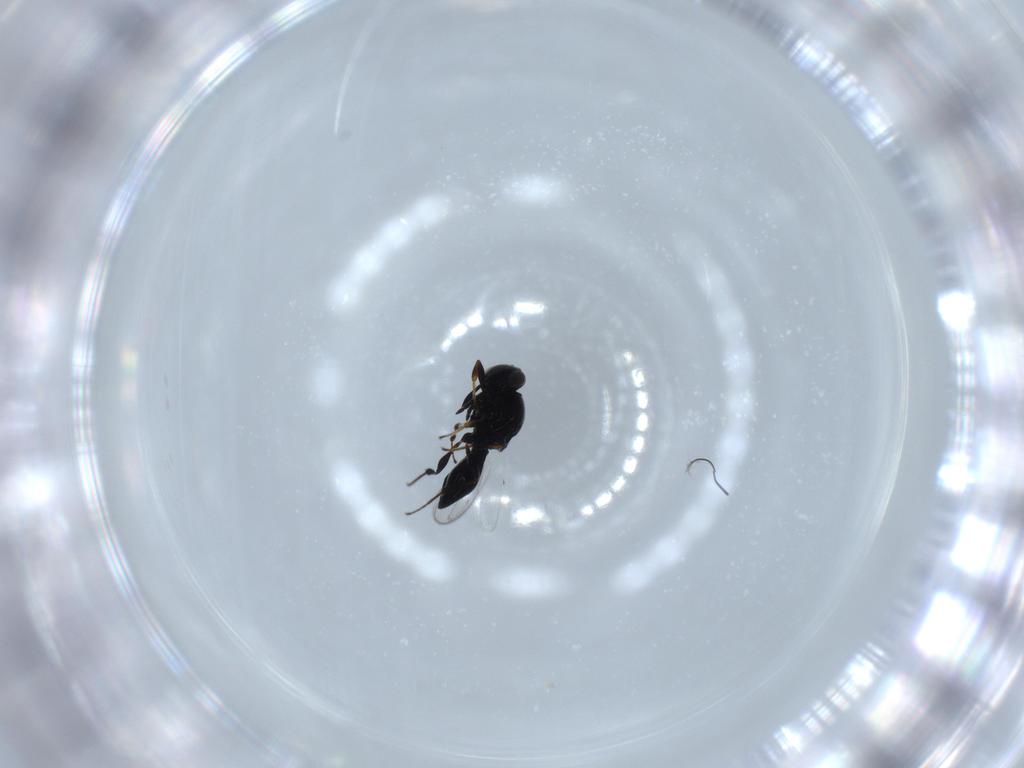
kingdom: Animalia
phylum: Arthropoda
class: Insecta
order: Hymenoptera
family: Platygastridae
